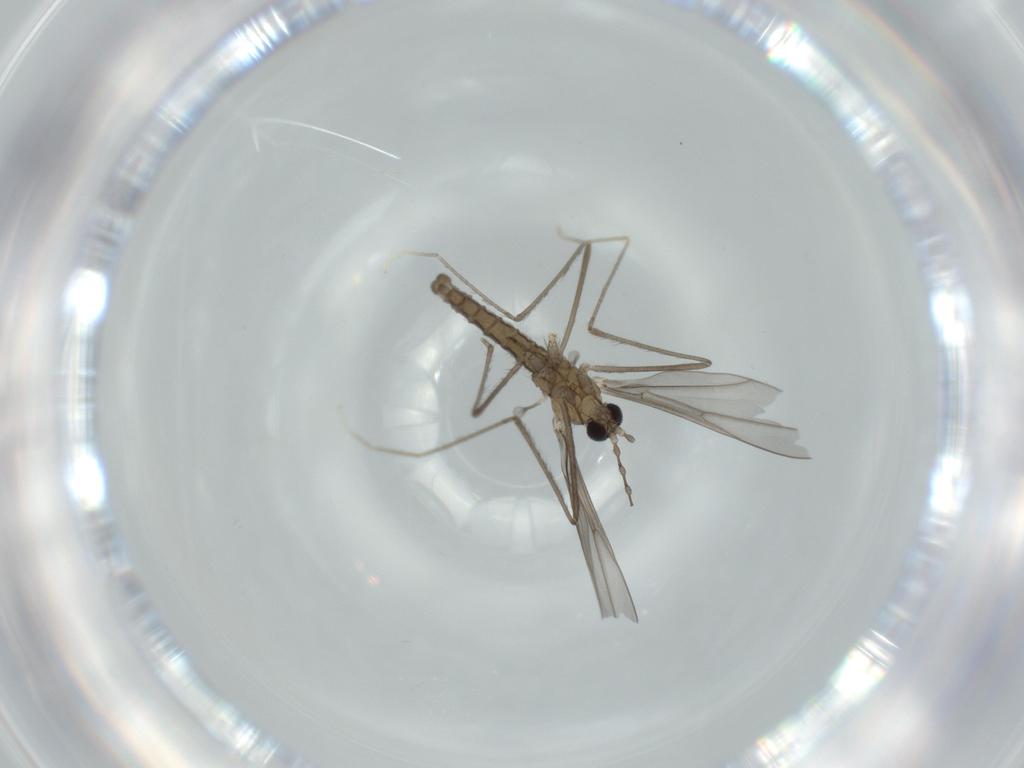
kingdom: Animalia
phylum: Arthropoda
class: Insecta
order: Diptera
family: Cecidomyiidae
